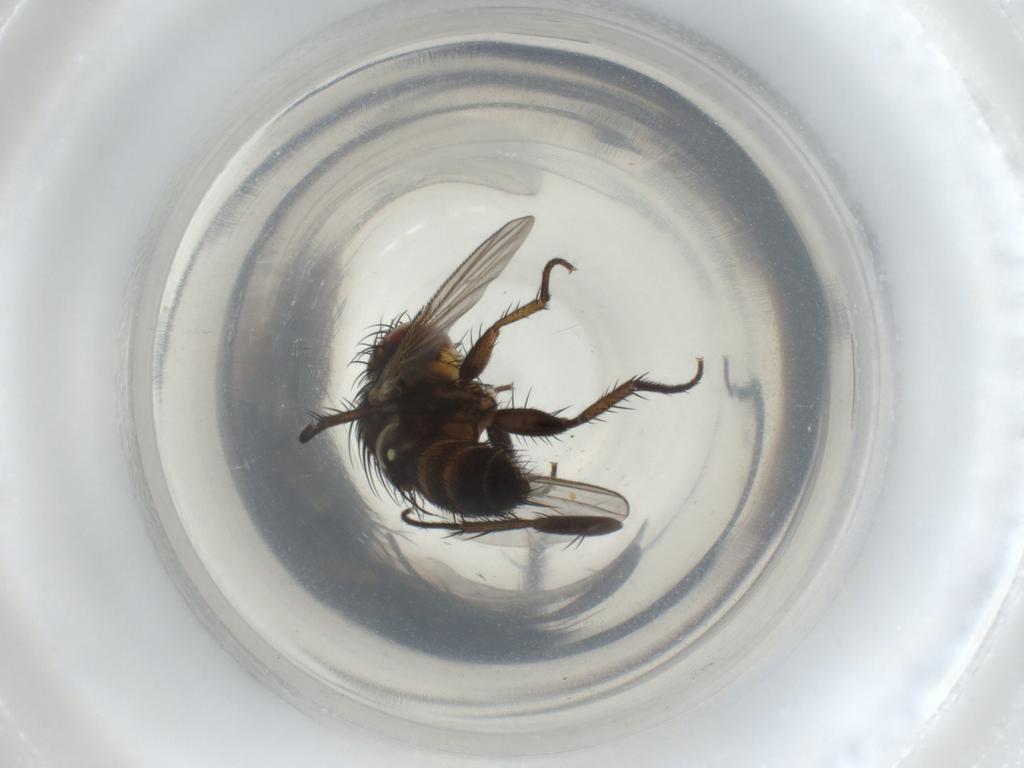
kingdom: Animalia
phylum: Arthropoda
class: Insecta
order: Diptera
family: Tachinidae
